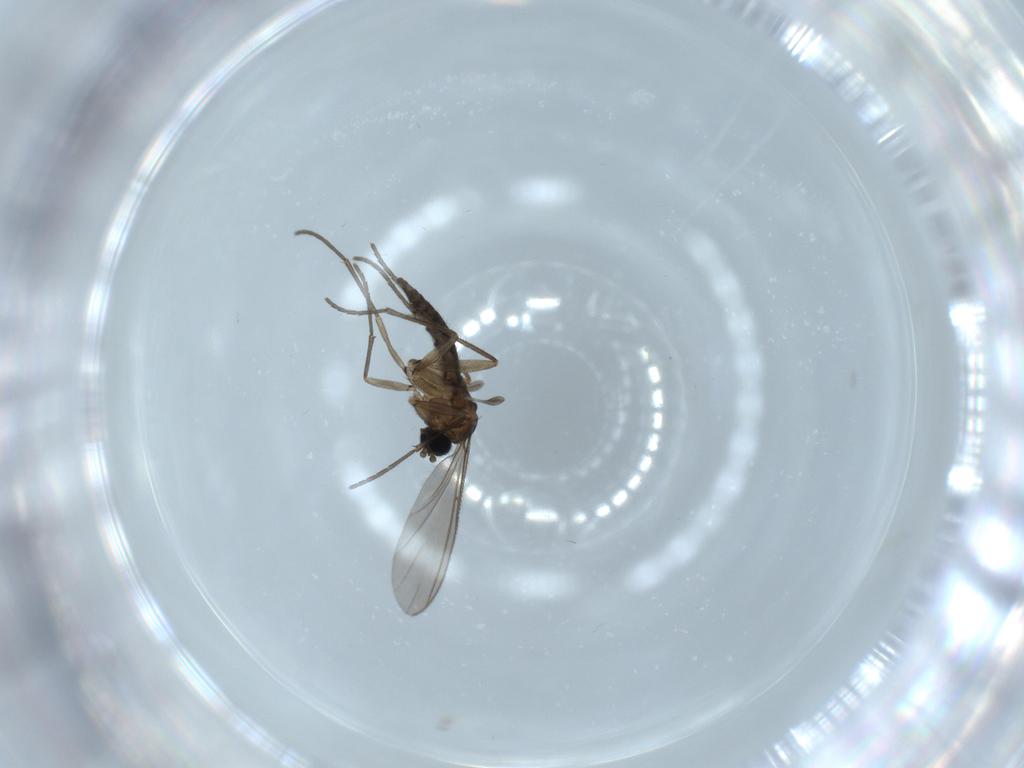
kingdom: Animalia
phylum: Arthropoda
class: Insecta
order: Diptera
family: Sciaridae
